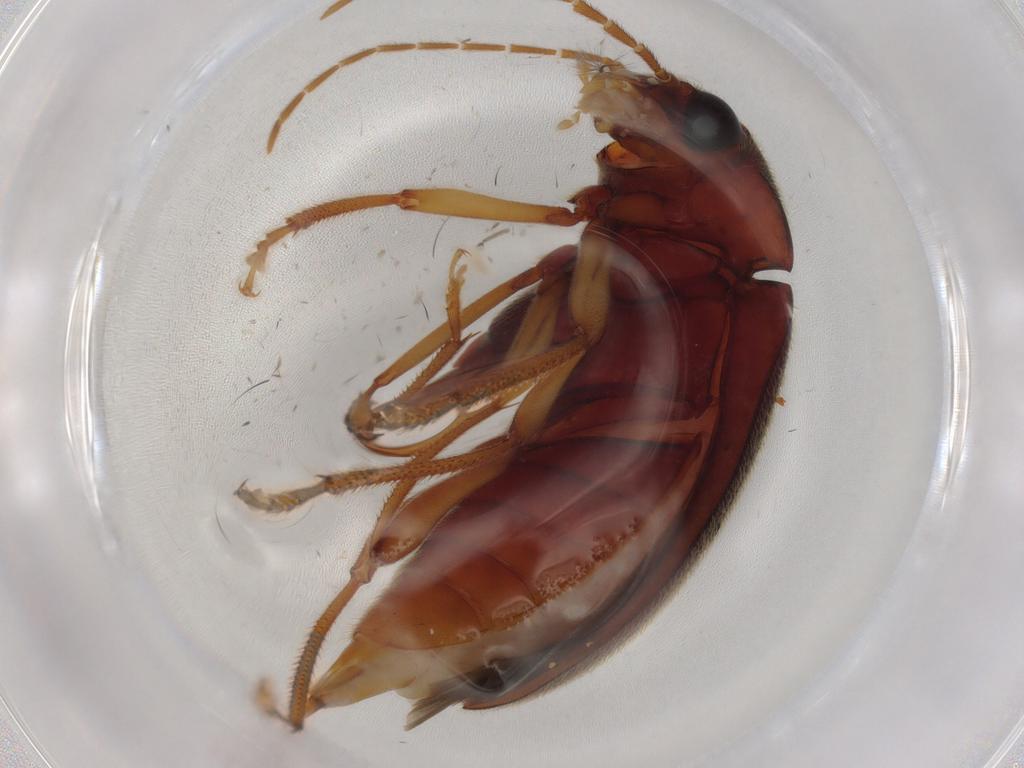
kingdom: Animalia
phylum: Arthropoda
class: Insecta
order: Coleoptera
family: Ptilodactylidae
